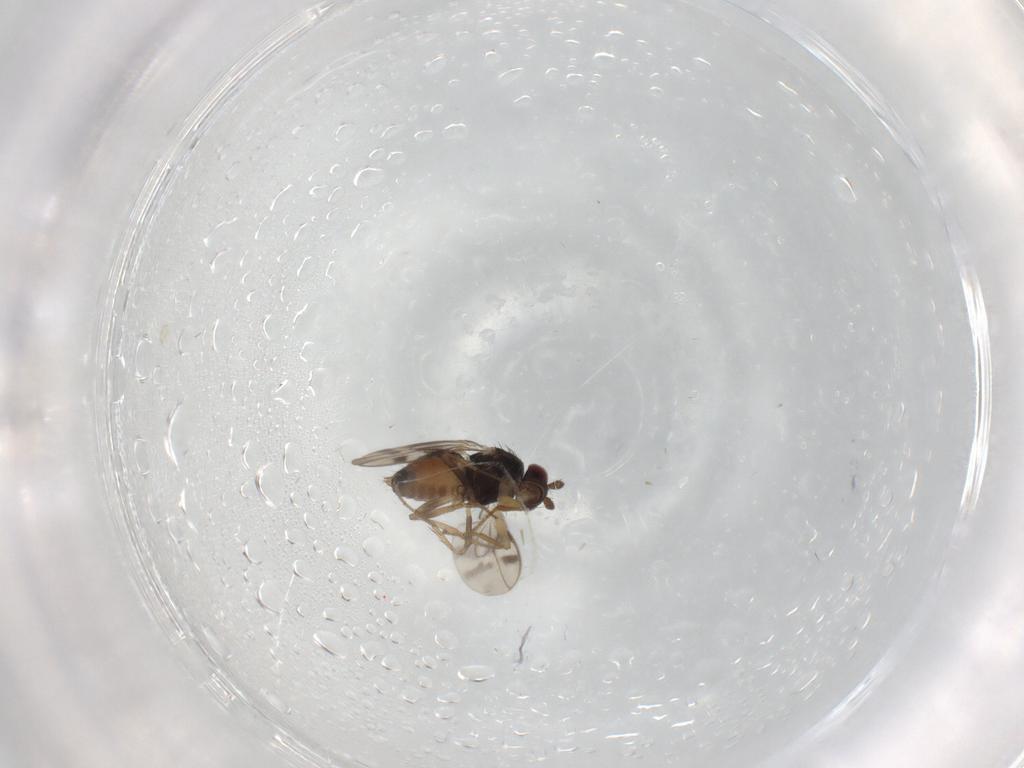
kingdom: Animalia
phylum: Arthropoda
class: Insecta
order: Diptera
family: Sphaeroceridae
